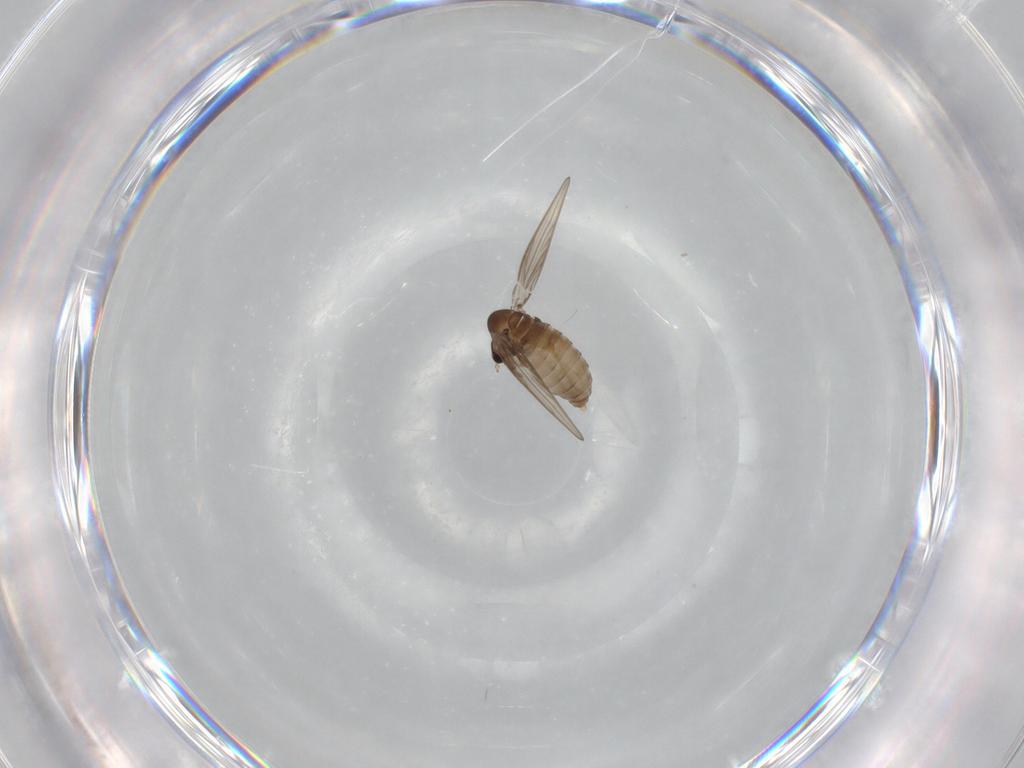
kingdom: Animalia
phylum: Arthropoda
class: Insecta
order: Diptera
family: Psychodidae
